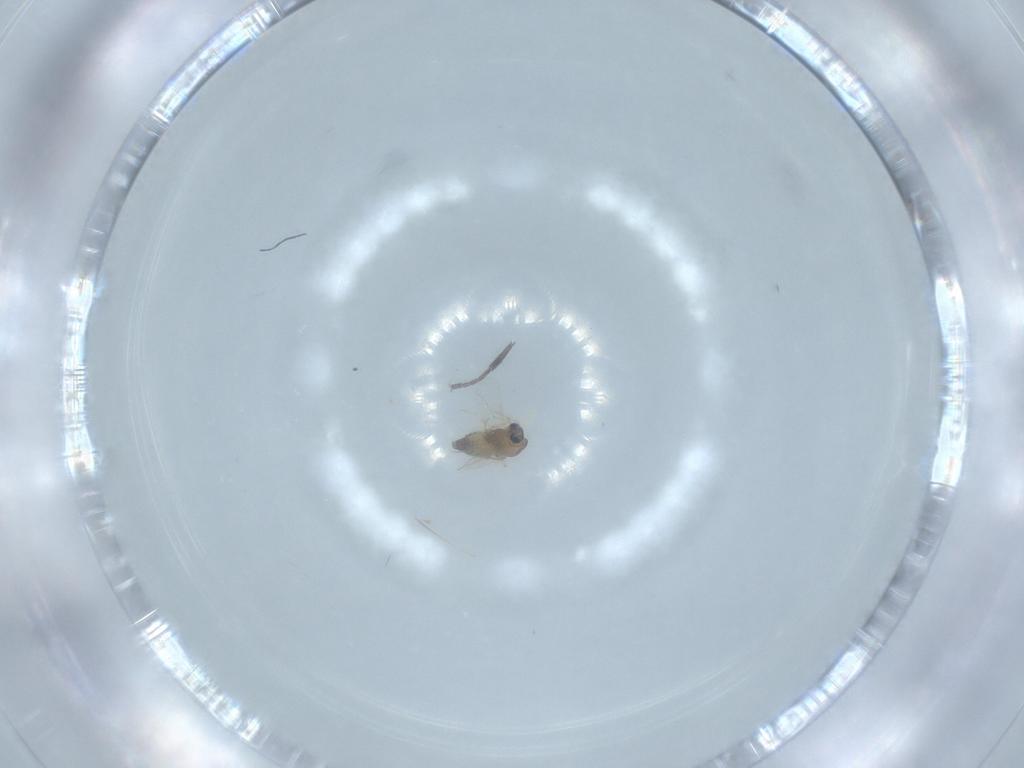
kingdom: Animalia
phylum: Arthropoda
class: Insecta
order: Diptera
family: Chironomidae
